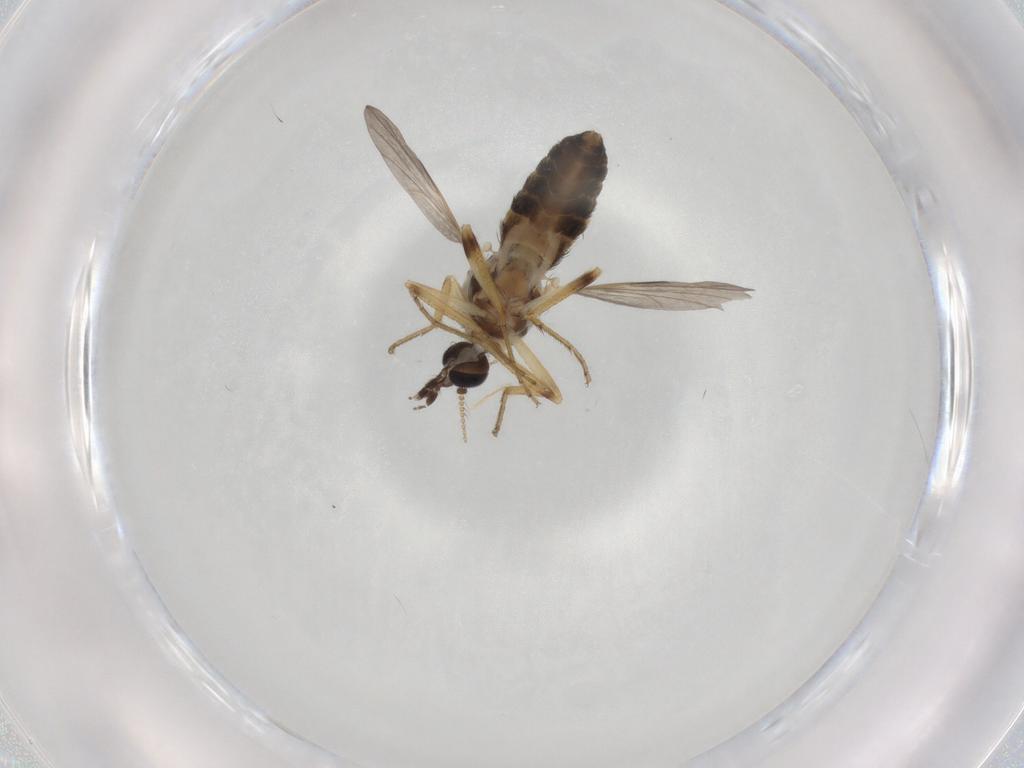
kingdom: Animalia
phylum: Arthropoda
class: Insecta
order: Diptera
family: Ceratopogonidae
